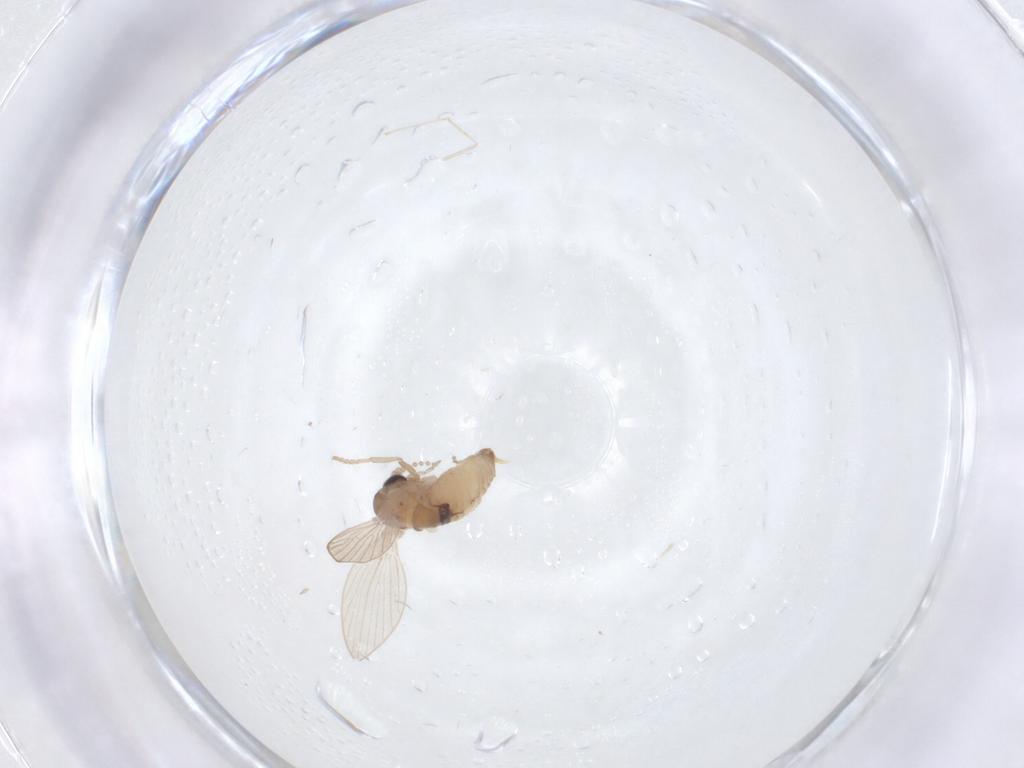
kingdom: Animalia
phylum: Arthropoda
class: Insecta
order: Diptera
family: Psychodidae
